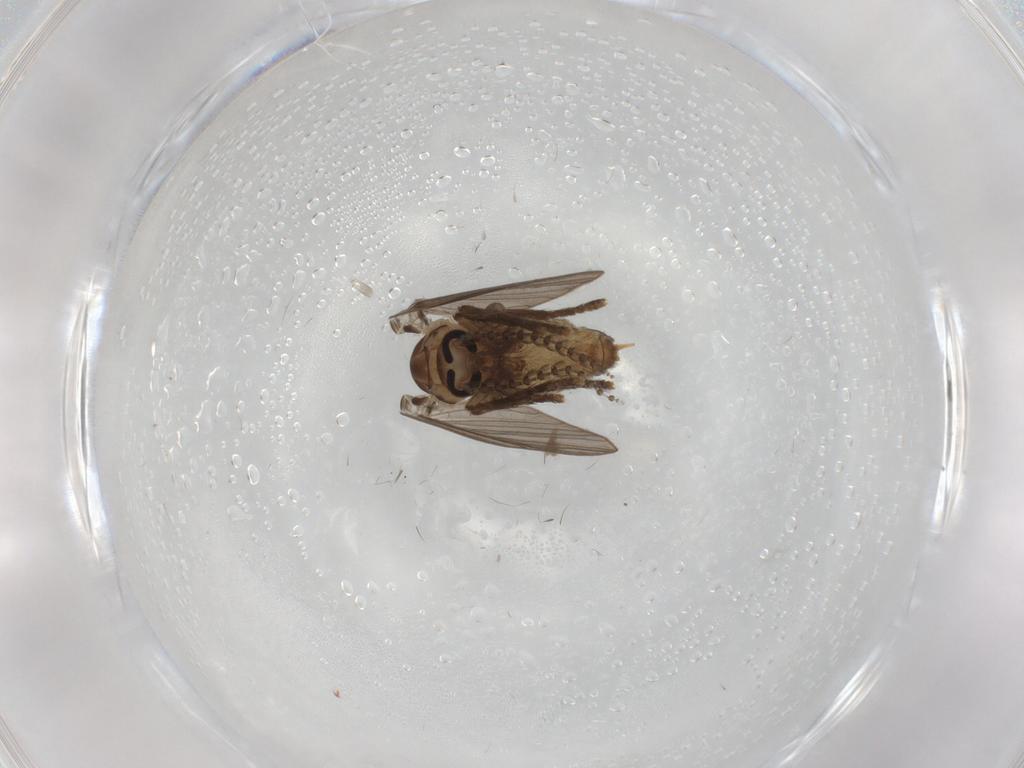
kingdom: Animalia
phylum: Arthropoda
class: Insecta
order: Diptera
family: Psychodidae
